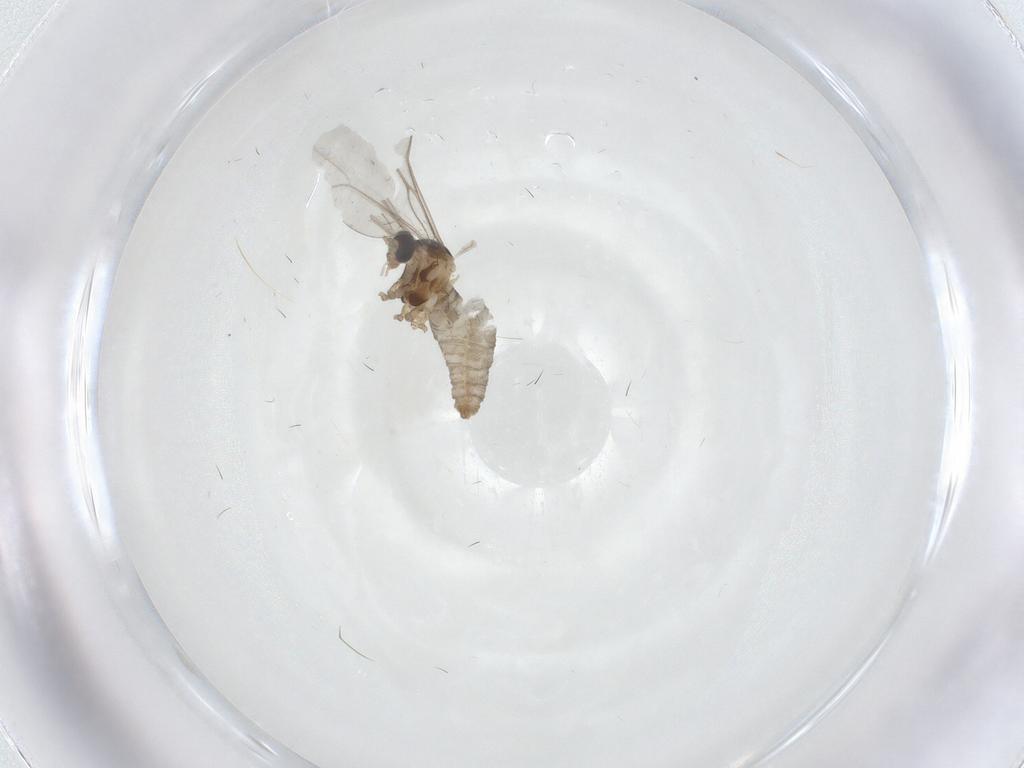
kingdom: Animalia
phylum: Arthropoda
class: Insecta
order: Diptera
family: Cecidomyiidae
